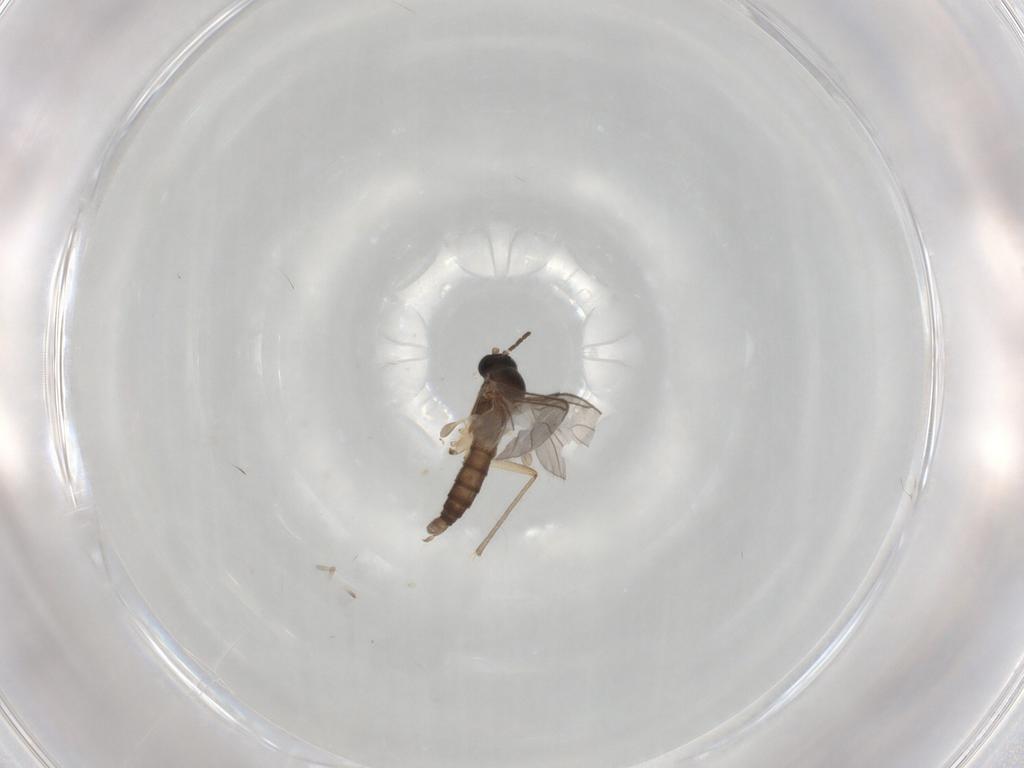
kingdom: Animalia
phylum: Arthropoda
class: Insecta
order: Diptera
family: Sciaridae
